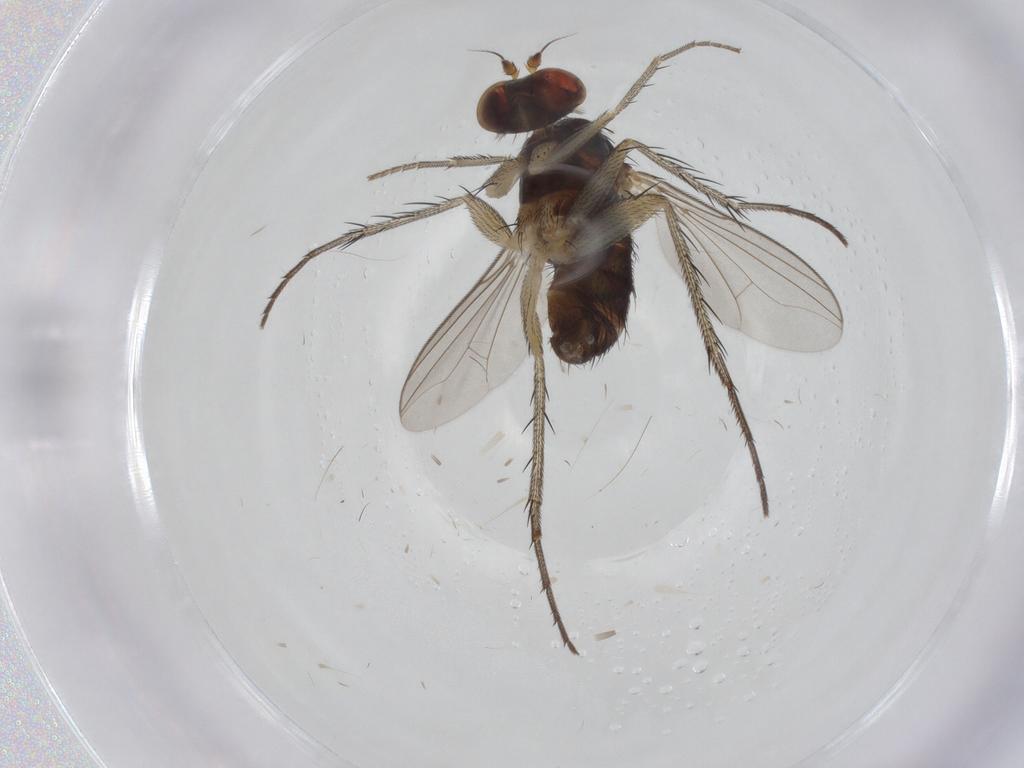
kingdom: Animalia
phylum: Arthropoda
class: Insecta
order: Diptera
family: Dolichopodidae
